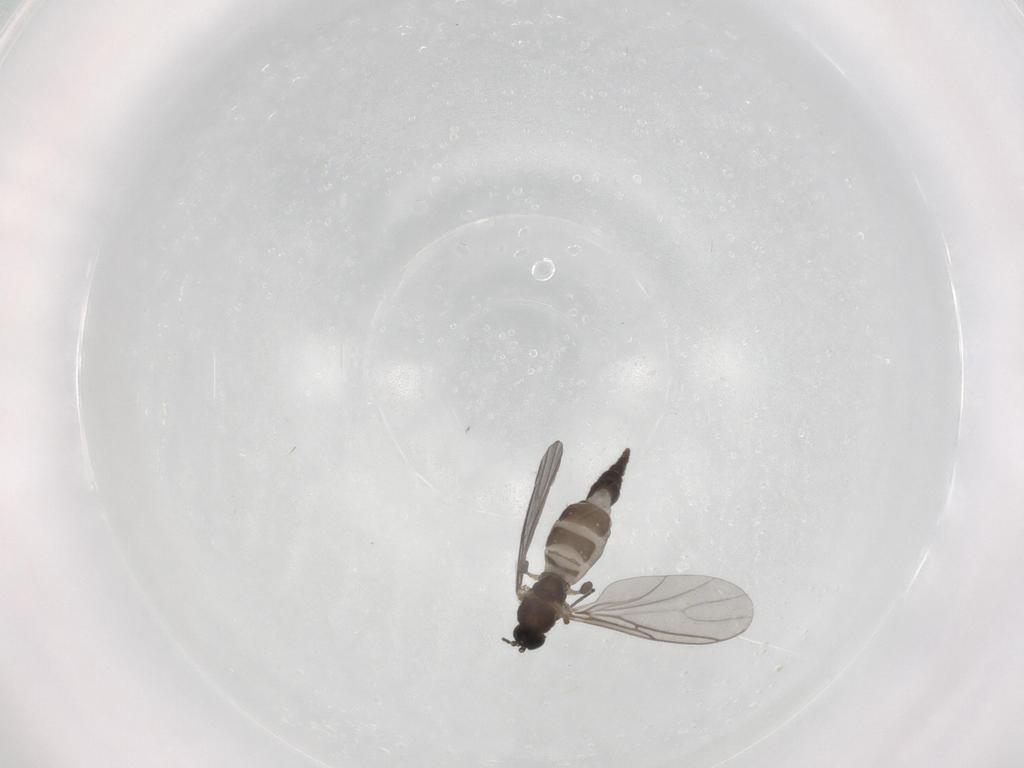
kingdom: Animalia
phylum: Arthropoda
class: Insecta
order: Diptera
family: Sciaridae
